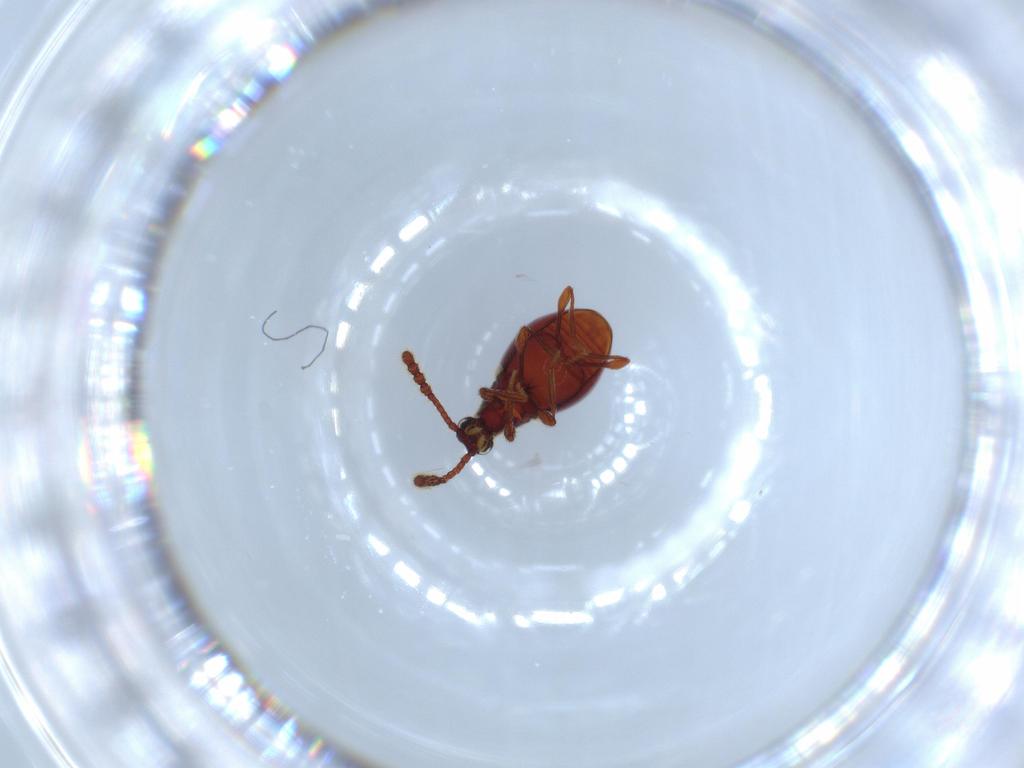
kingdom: Animalia
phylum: Arthropoda
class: Insecta
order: Coleoptera
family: Staphylinidae
